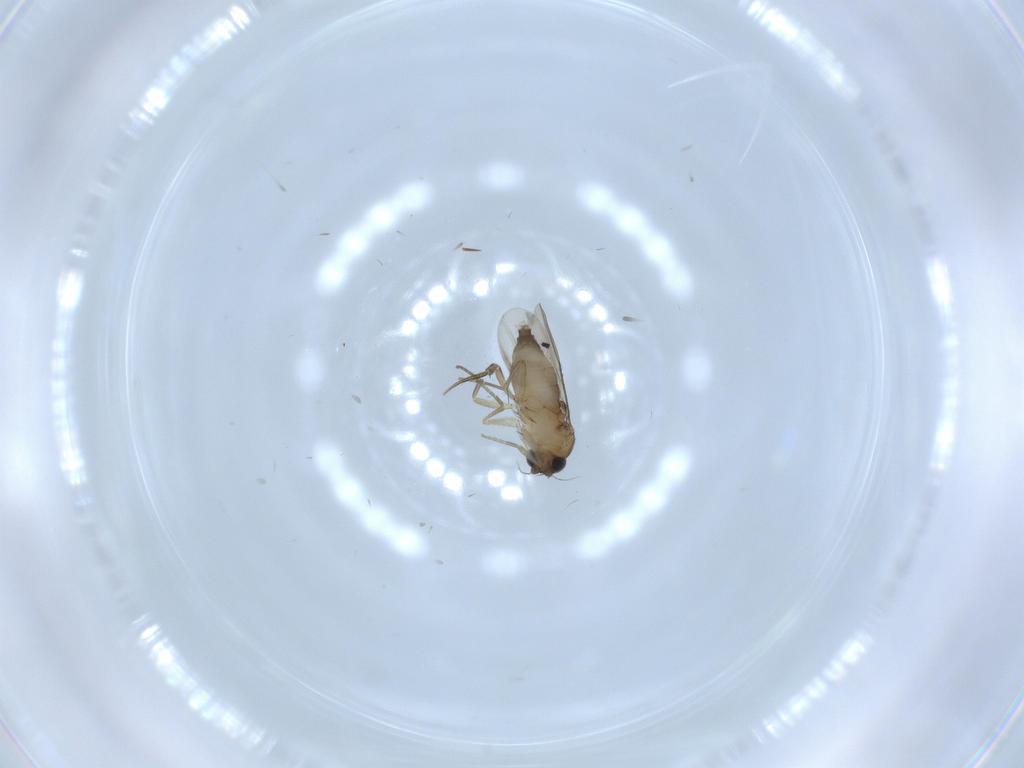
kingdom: Animalia
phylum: Arthropoda
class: Insecta
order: Diptera
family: Phoridae
